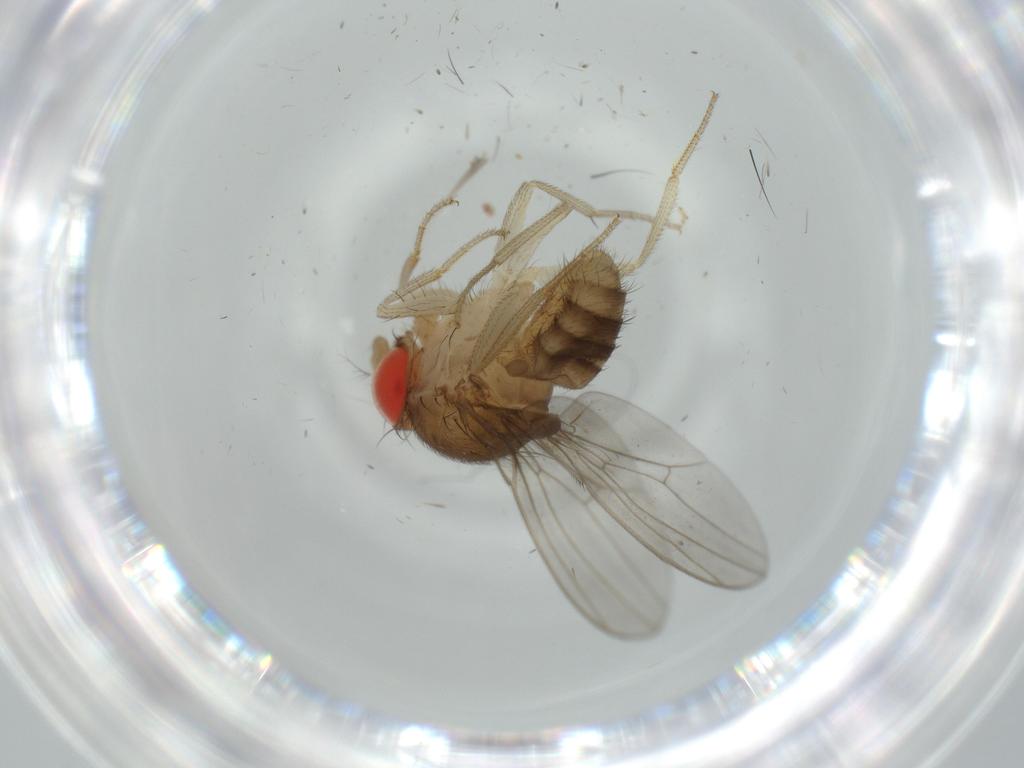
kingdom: Animalia
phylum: Arthropoda
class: Insecta
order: Diptera
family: Drosophilidae
